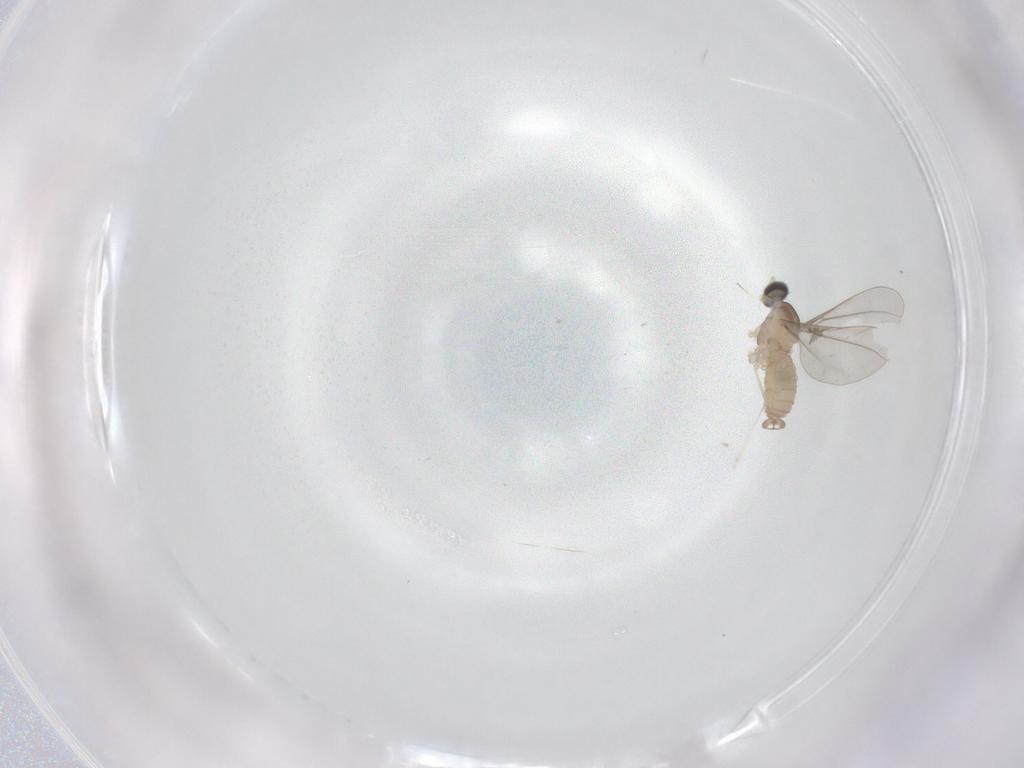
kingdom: Animalia
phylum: Arthropoda
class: Insecta
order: Diptera
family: Cecidomyiidae
